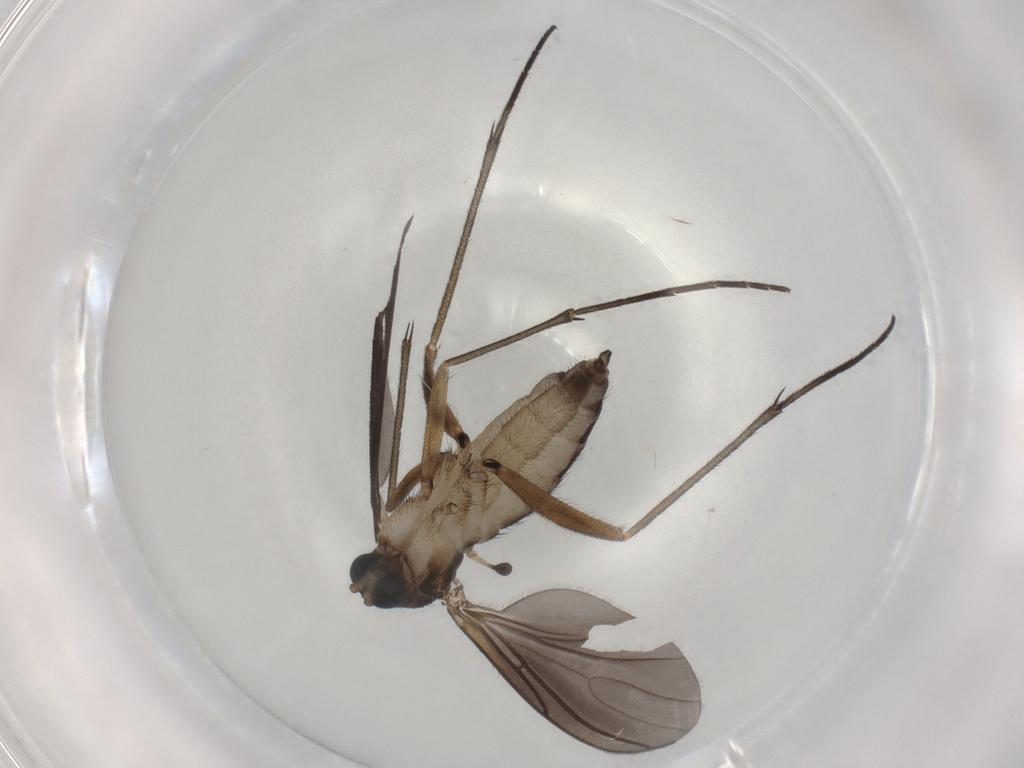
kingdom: Animalia
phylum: Arthropoda
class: Insecta
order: Diptera
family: Sciaridae
